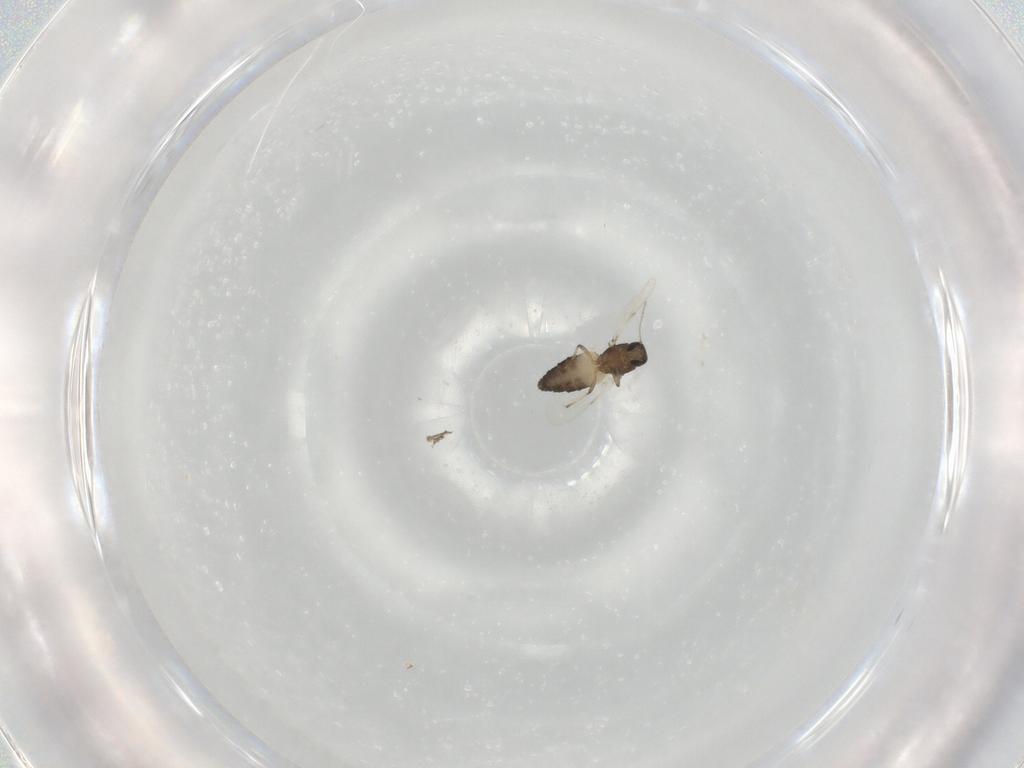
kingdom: Animalia
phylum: Arthropoda
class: Insecta
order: Diptera
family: Ceratopogonidae
